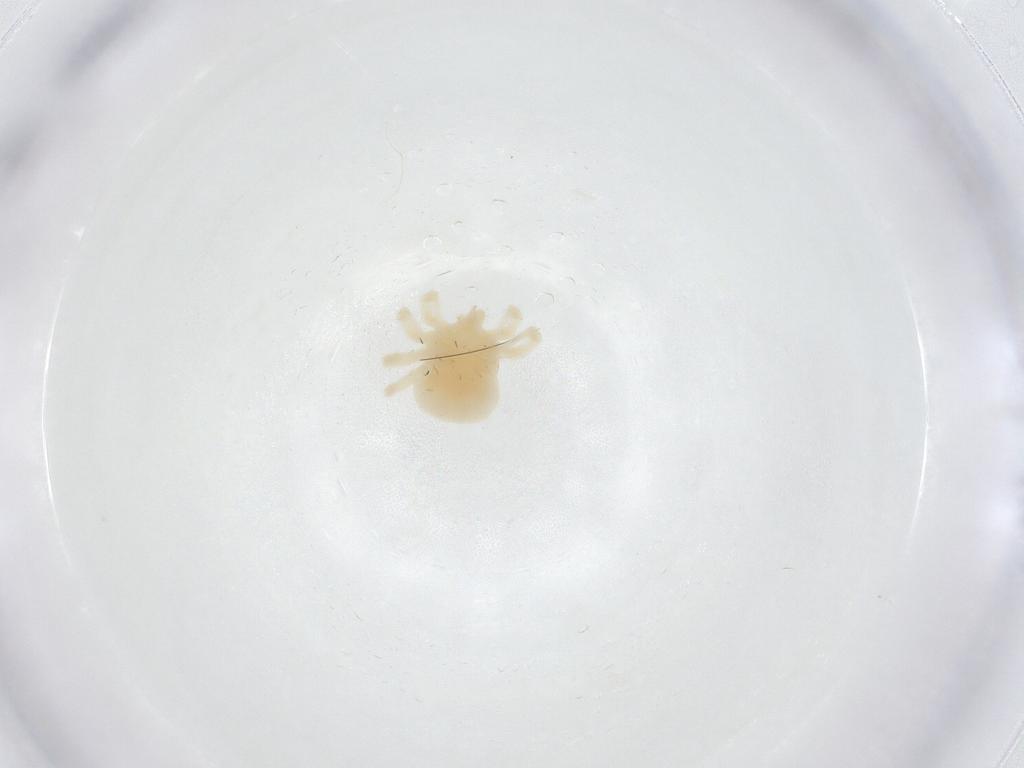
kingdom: Animalia
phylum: Arthropoda
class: Arachnida
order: Trombidiformes
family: Anystidae
